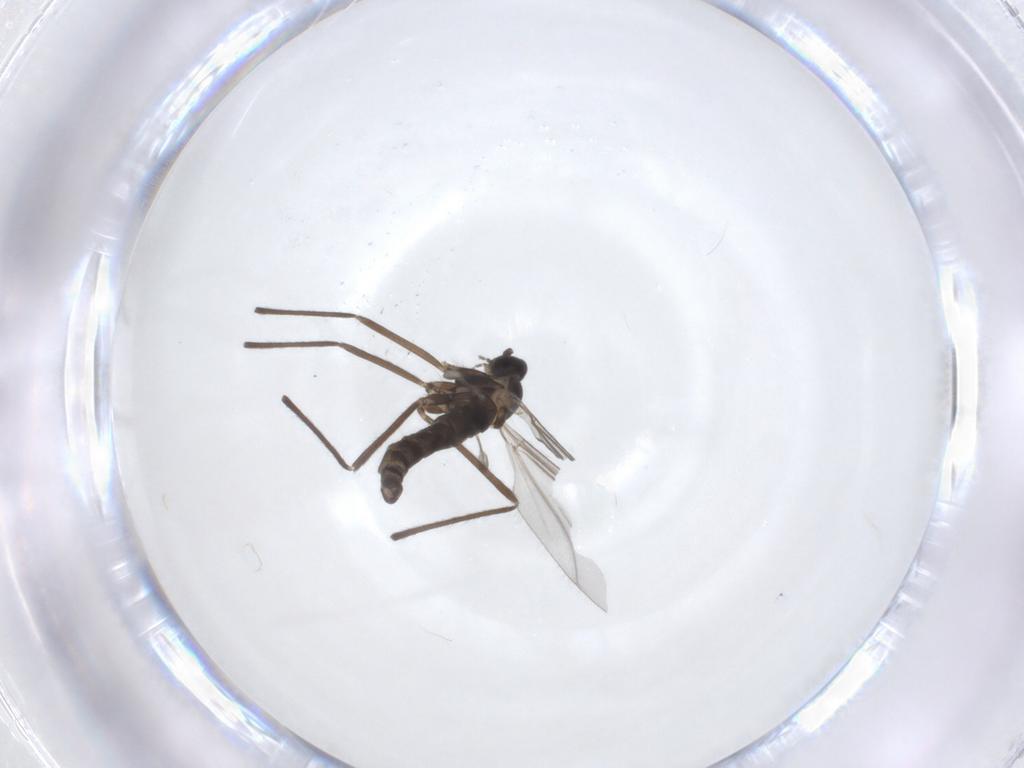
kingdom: Animalia
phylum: Arthropoda
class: Insecta
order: Diptera
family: Cecidomyiidae
